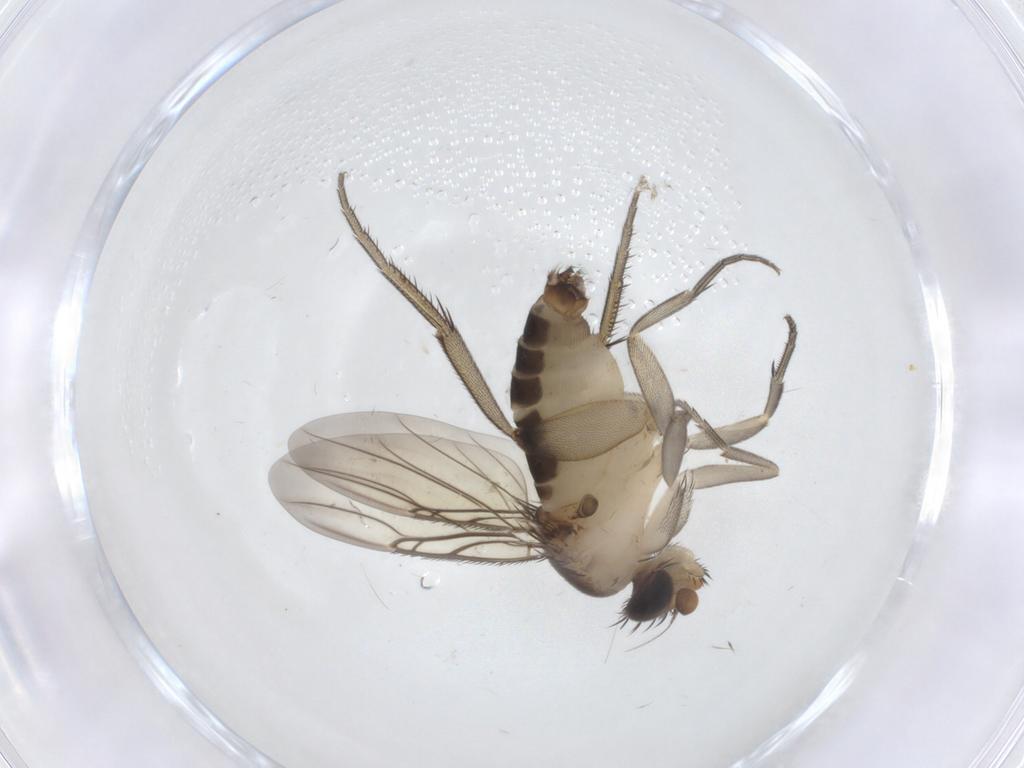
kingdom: Animalia
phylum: Arthropoda
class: Insecta
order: Diptera
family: Phoridae
